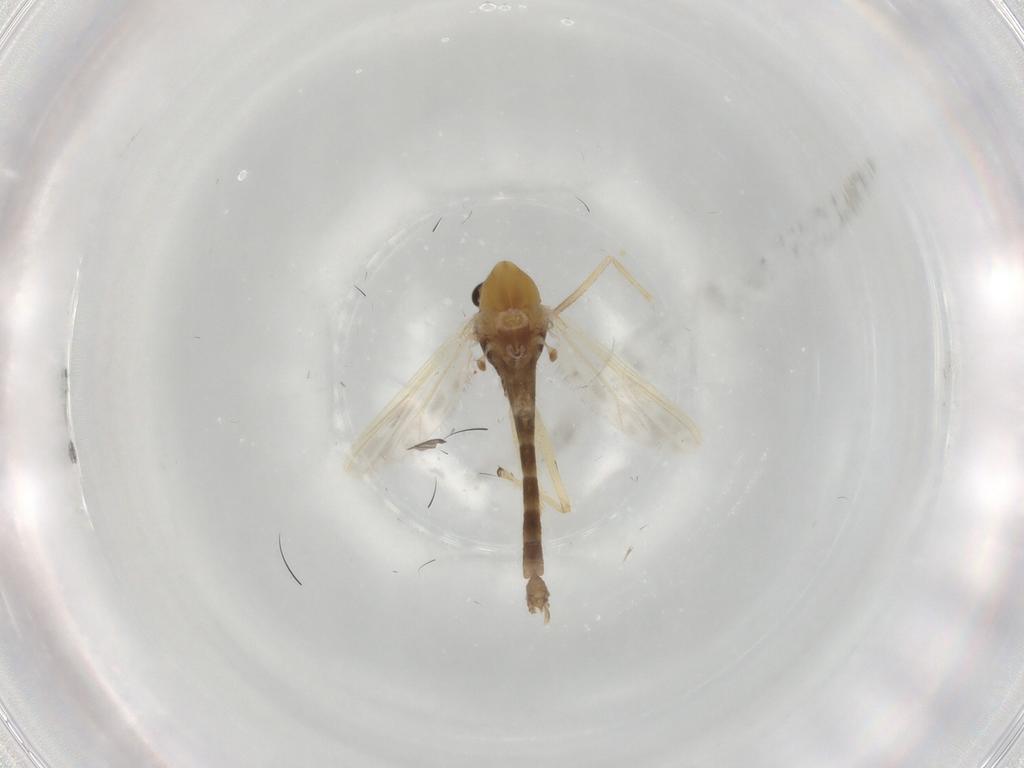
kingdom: Animalia
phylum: Arthropoda
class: Insecta
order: Diptera
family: Chironomidae
